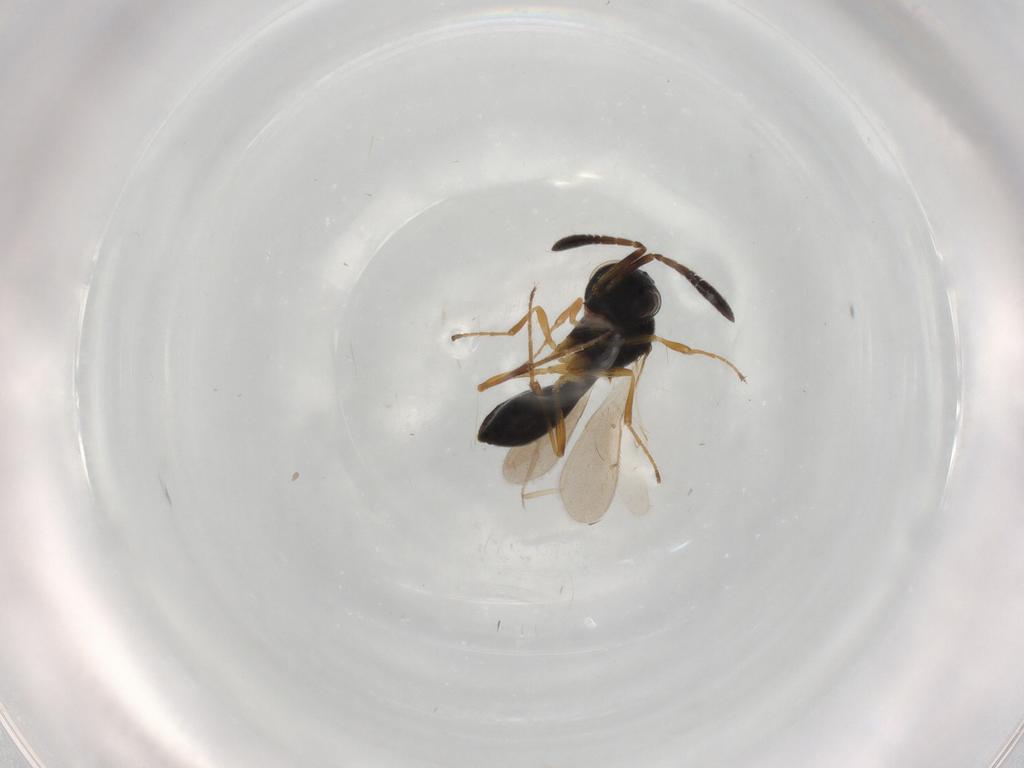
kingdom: Animalia
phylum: Arthropoda
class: Insecta
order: Hymenoptera
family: Scelionidae
